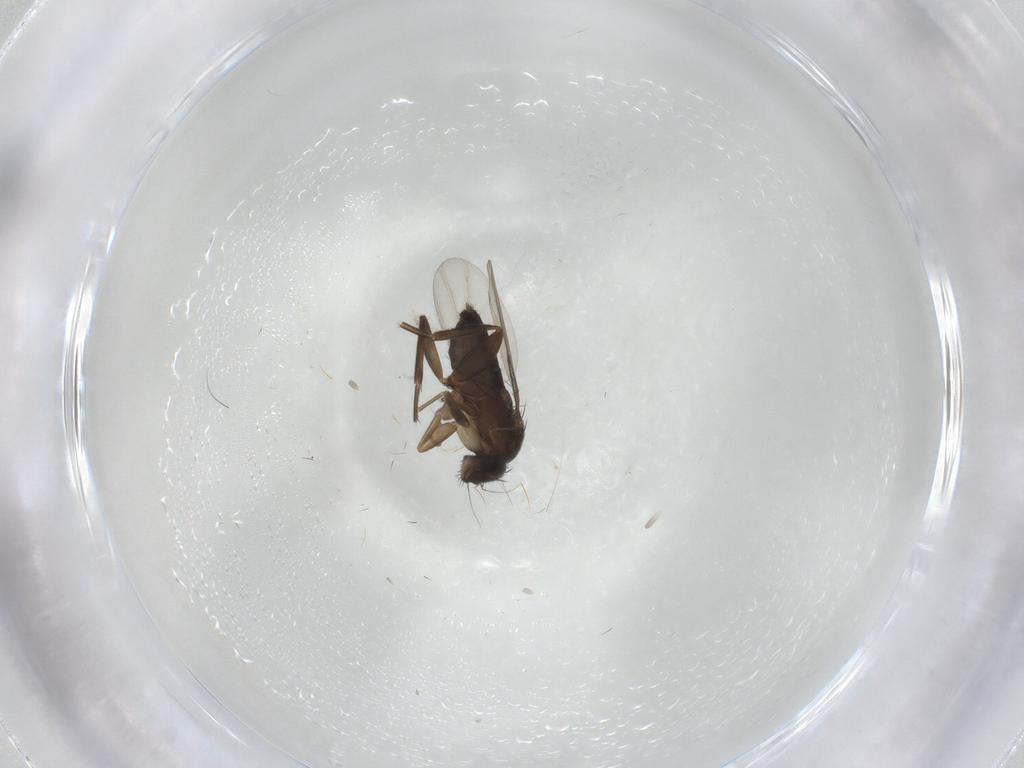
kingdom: Animalia
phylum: Arthropoda
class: Insecta
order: Diptera
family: Phoridae
